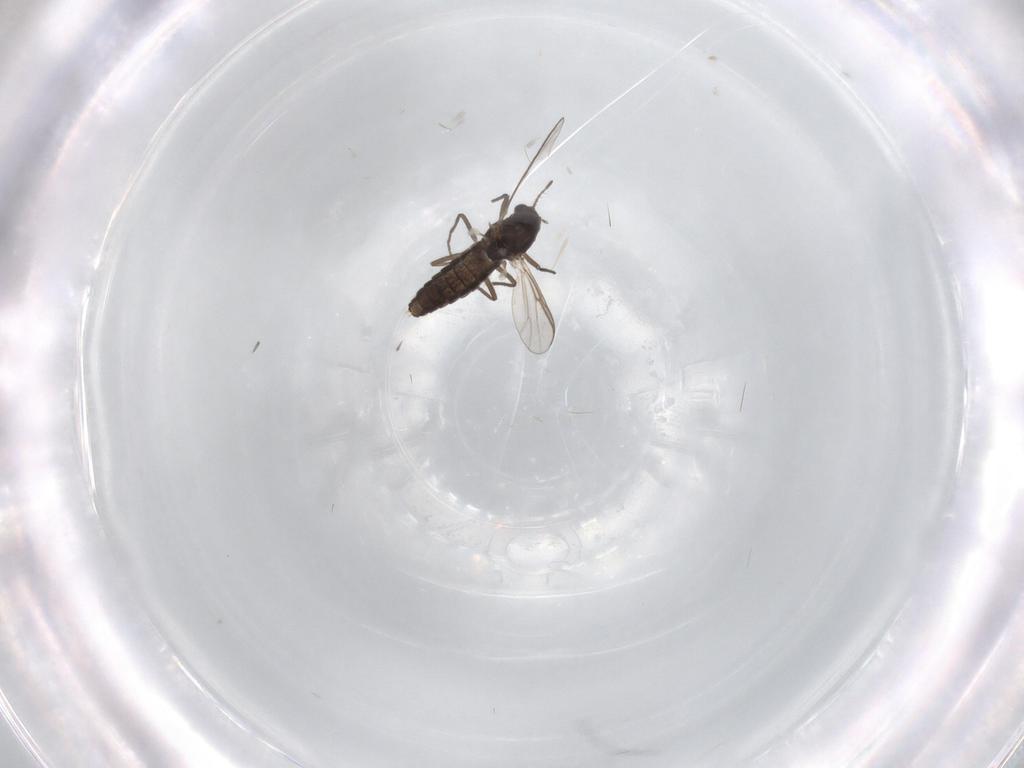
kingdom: Animalia
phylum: Arthropoda
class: Insecta
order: Diptera
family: Chironomidae
